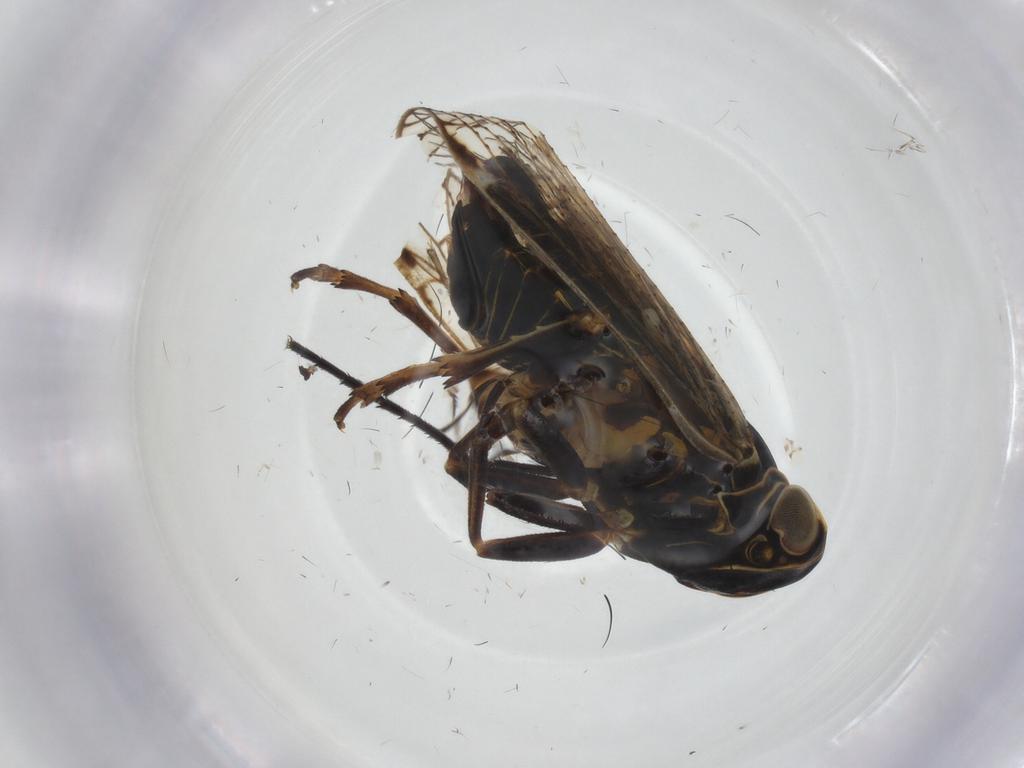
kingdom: Animalia
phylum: Arthropoda
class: Insecta
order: Hemiptera
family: Cixiidae
